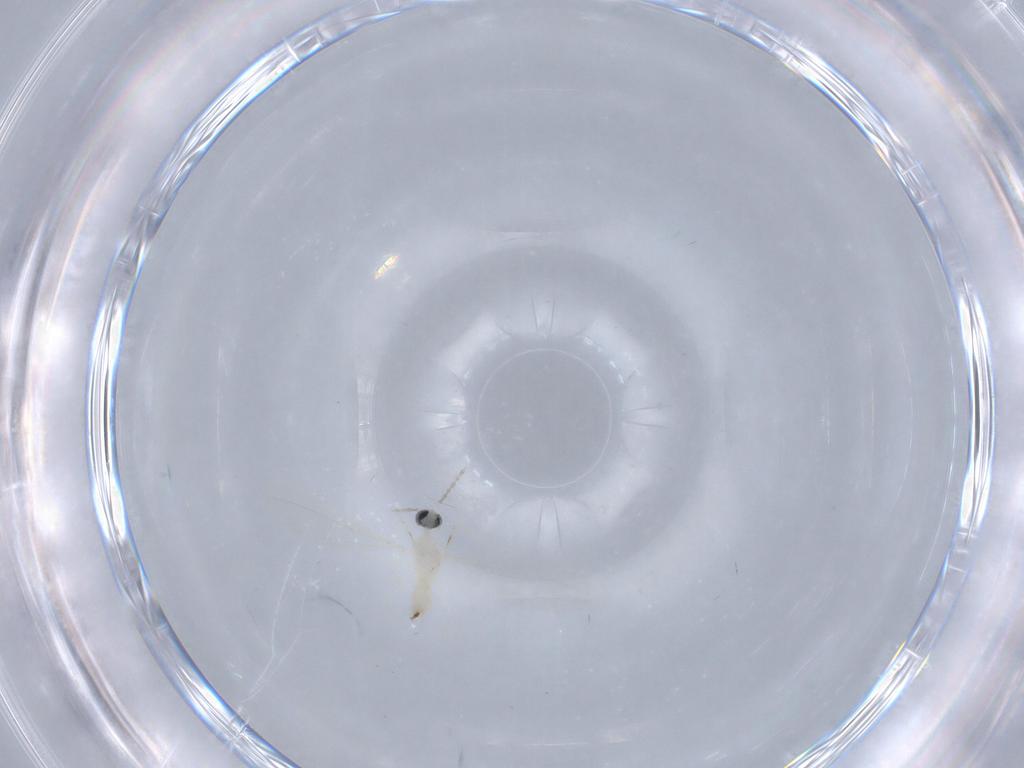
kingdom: Animalia
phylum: Arthropoda
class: Insecta
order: Diptera
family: Cecidomyiidae
